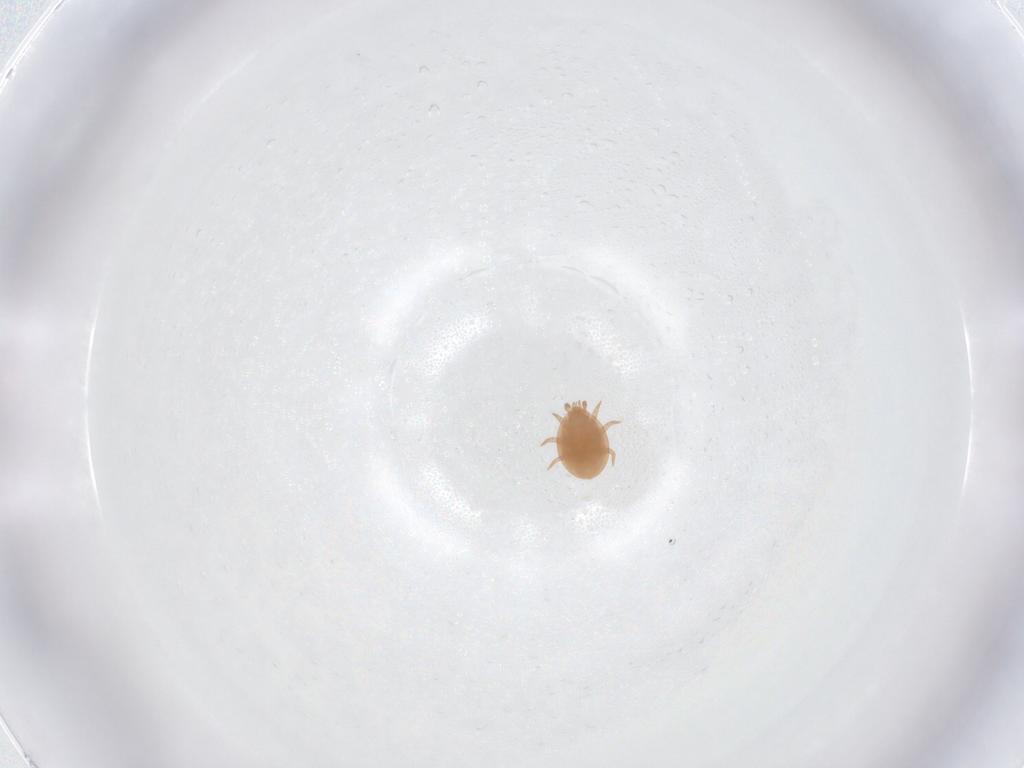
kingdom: Animalia
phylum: Arthropoda
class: Arachnida
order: Mesostigmata
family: Trematuridae
